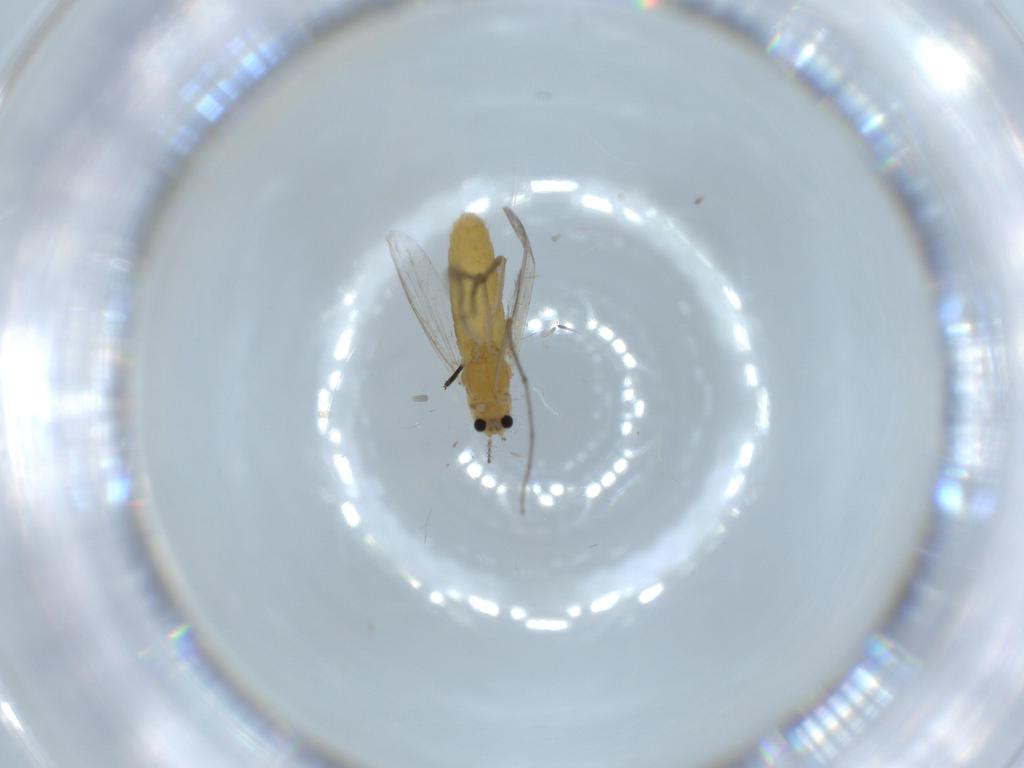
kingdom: Animalia
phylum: Arthropoda
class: Insecta
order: Diptera
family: Chironomidae
